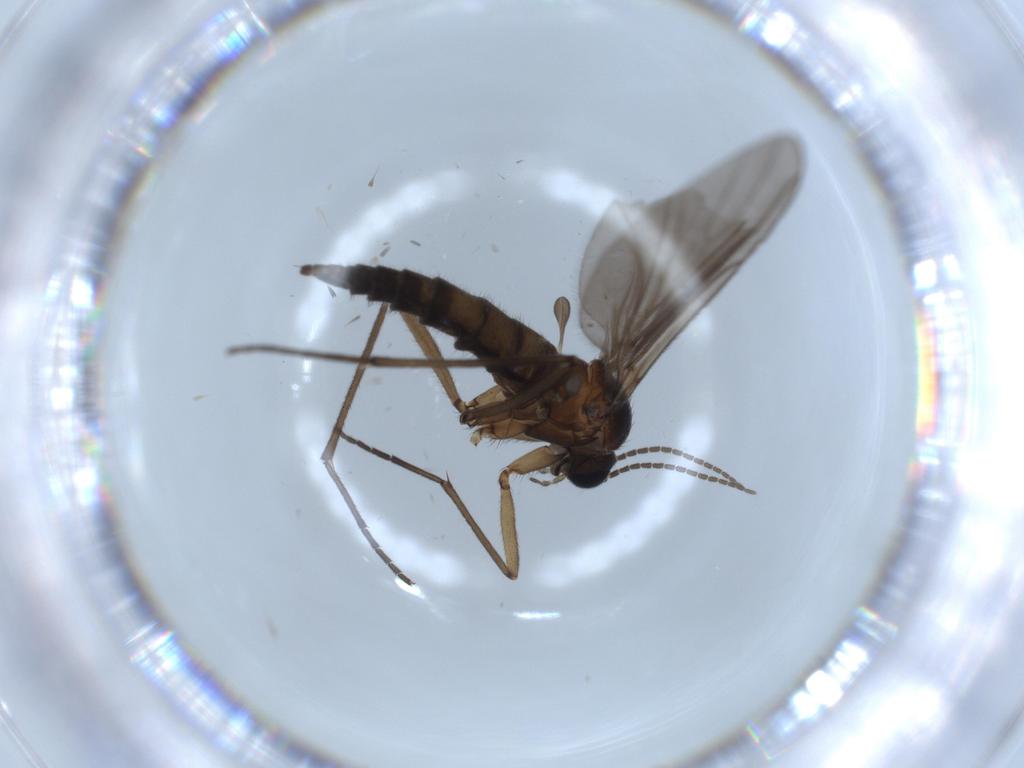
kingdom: Animalia
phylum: Arthropoda
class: Insecta
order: Diptera
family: Sciaridae
